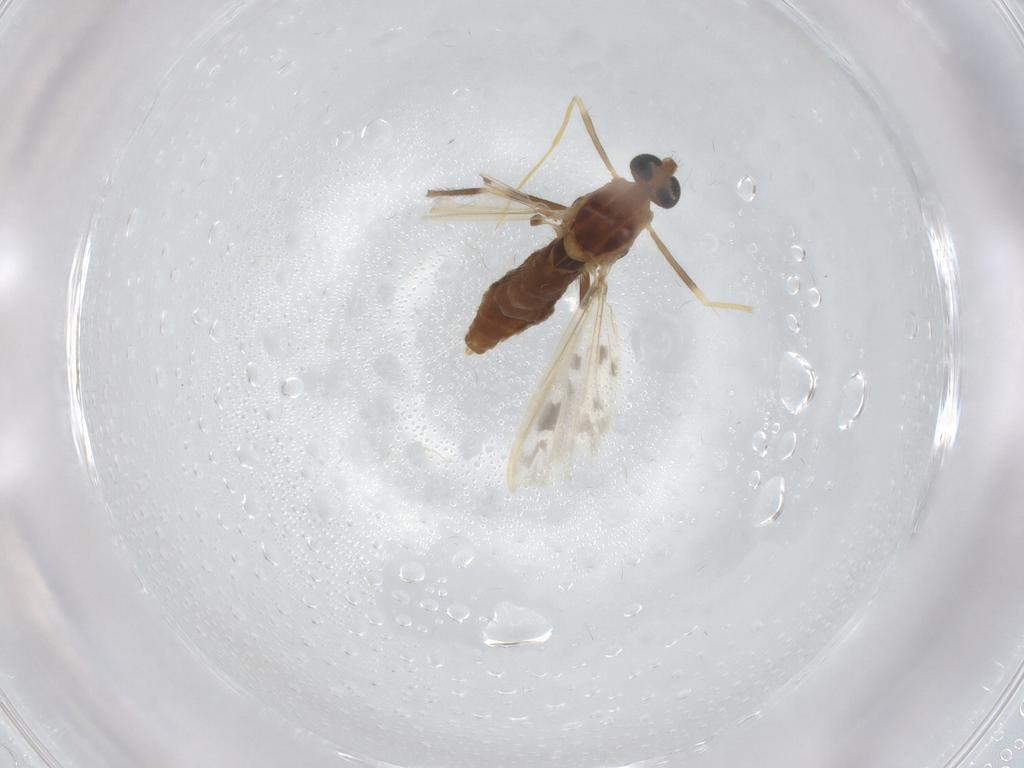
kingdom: Animalia
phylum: Arthropoda
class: Insecta
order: Diptera
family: Chironomidae
